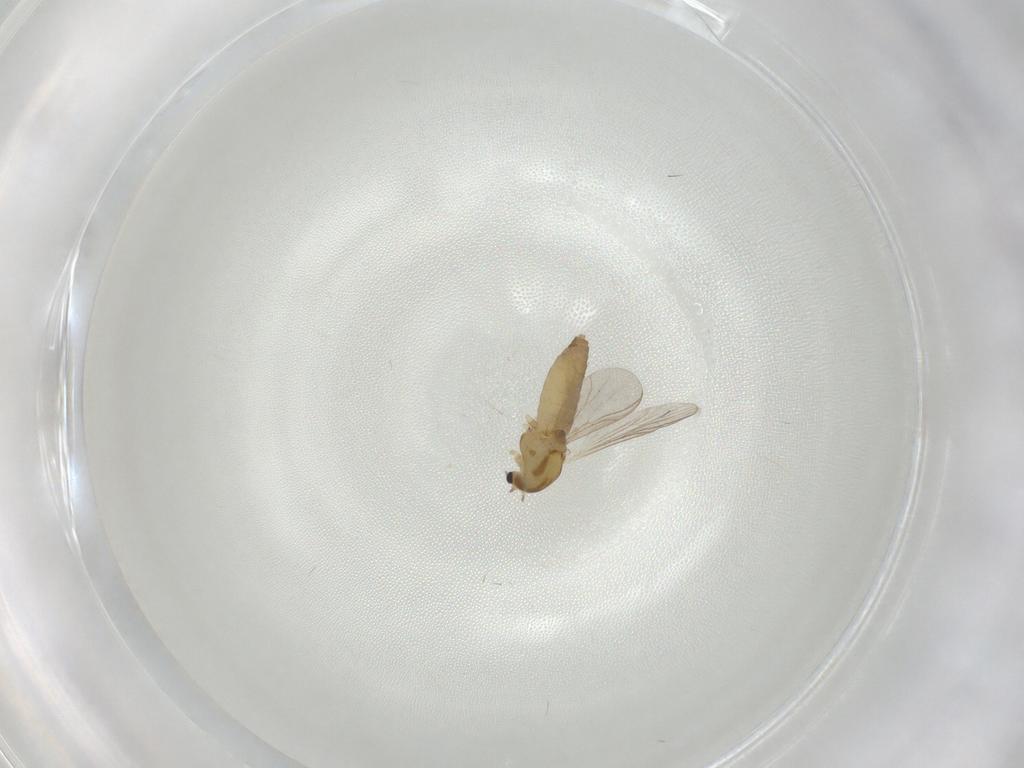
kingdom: Animalia
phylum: Arthropoda
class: Insecta
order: Diptera
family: Chironomidae
